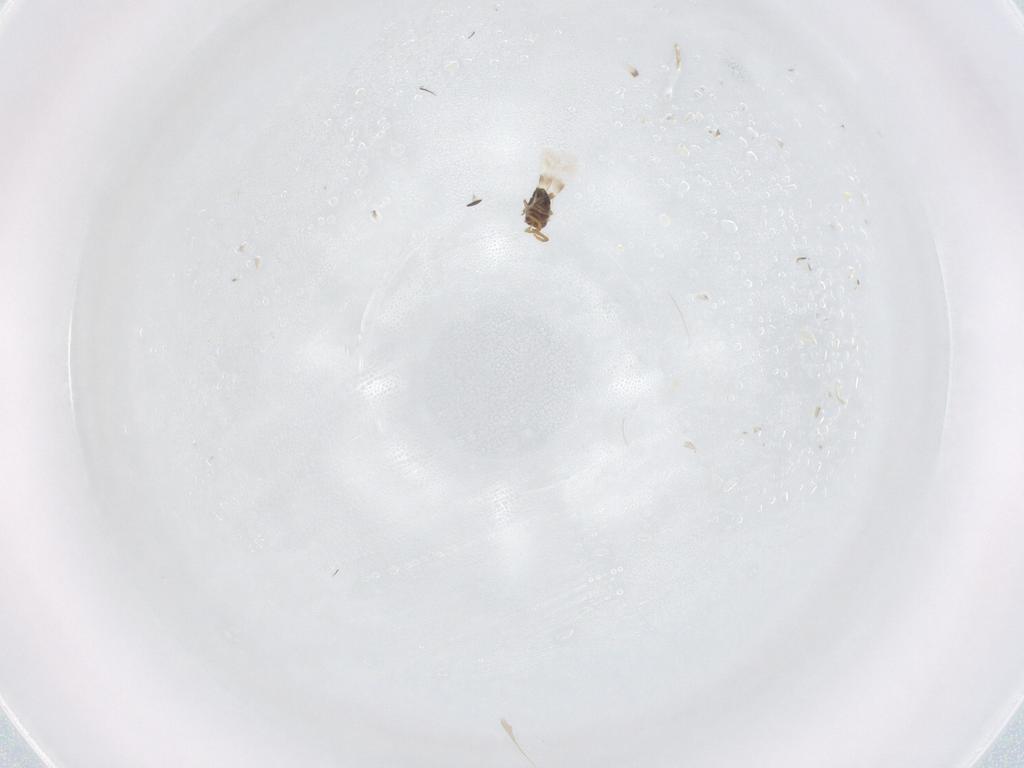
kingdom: Animalia
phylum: Arthropoda
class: Insecta
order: Hymenoptera
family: Azotidae
